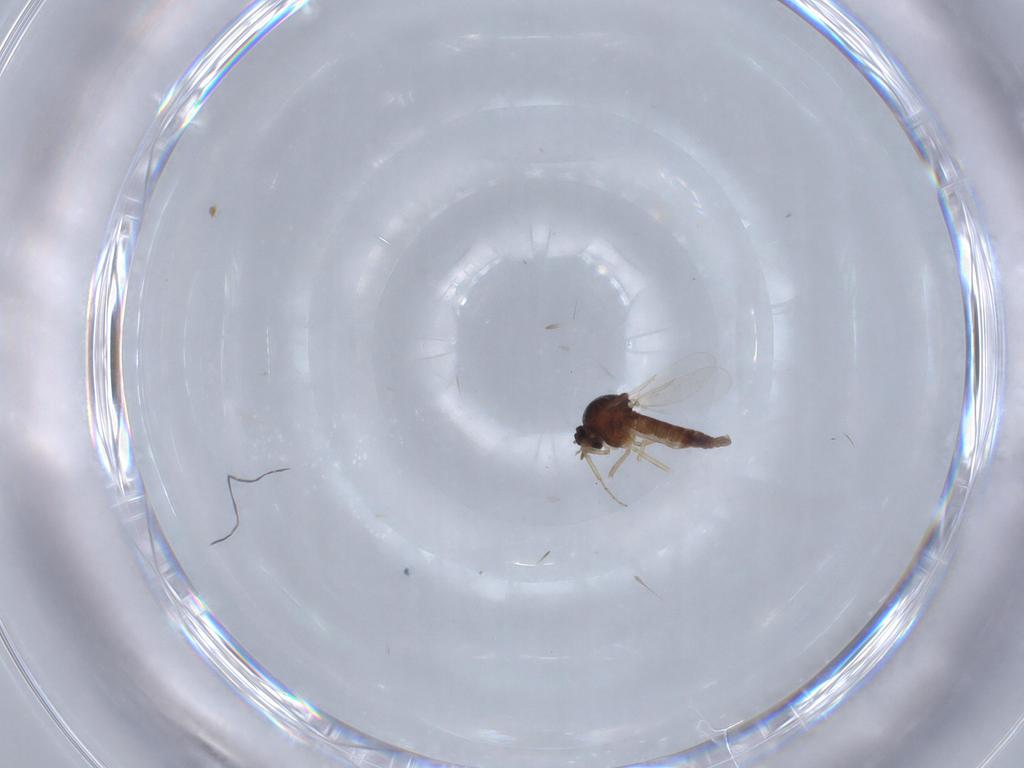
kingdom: Animalia
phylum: Arthropoda
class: Insecta
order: Diptera
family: Ceratopogonidae
